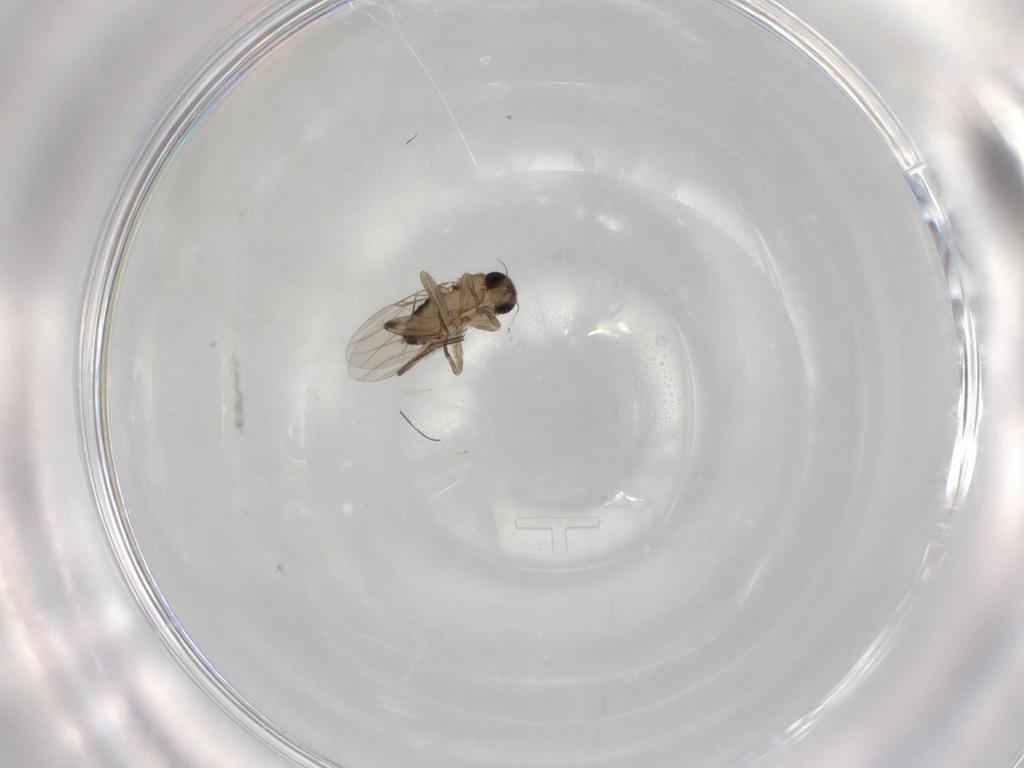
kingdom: Animalia
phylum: Arthropoda
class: Insecta
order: Diptera
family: Phoridae
